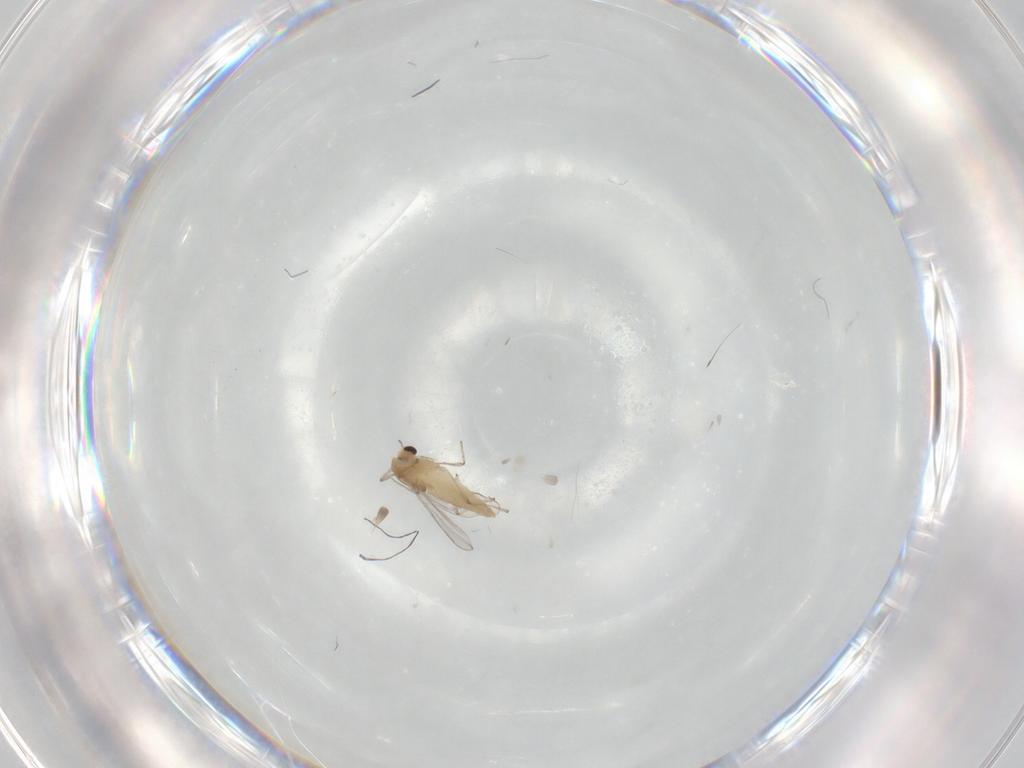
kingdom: Animalia
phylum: Arthropoda
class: Insecta
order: Diptera
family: Chironomidae
